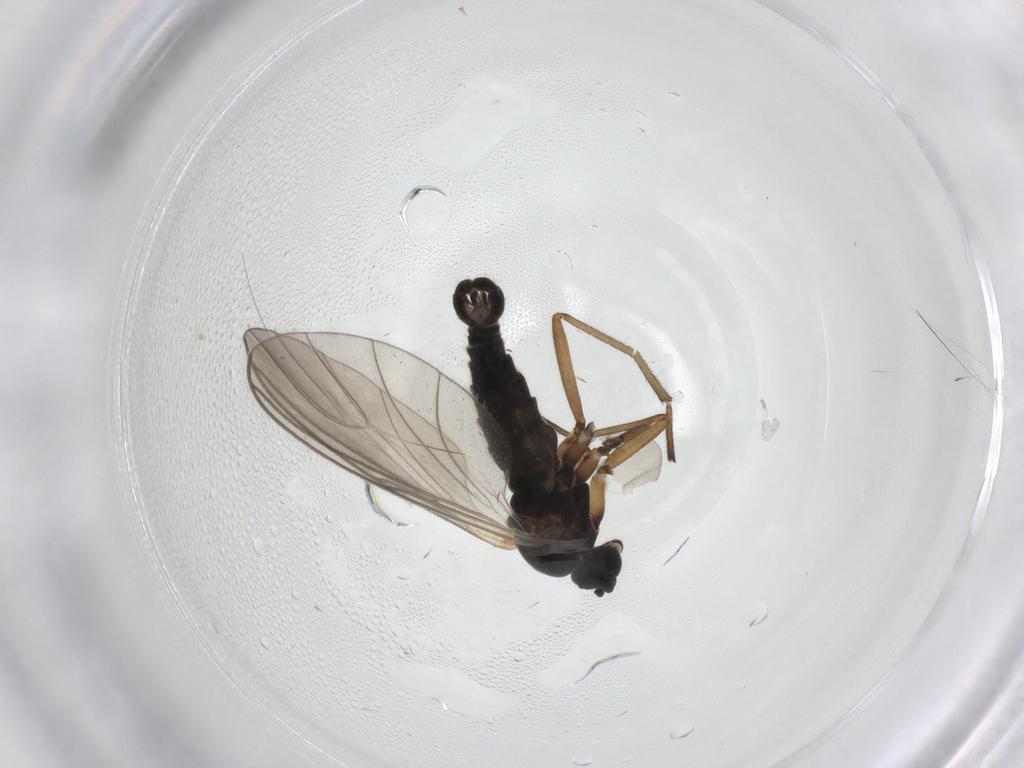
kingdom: Animalia
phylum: Arthropoda
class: Insecta
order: Diptera
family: Sciaridae
